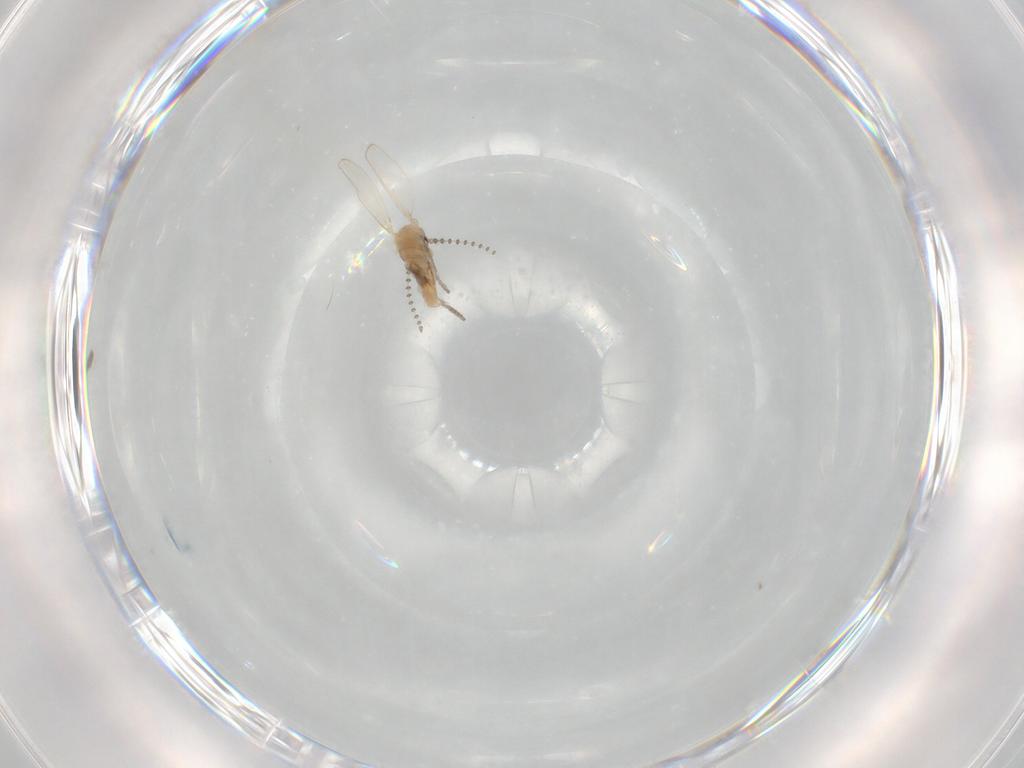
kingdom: Animalia
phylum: Arthropoda
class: Insecta
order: Diptera
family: Psychodidae
